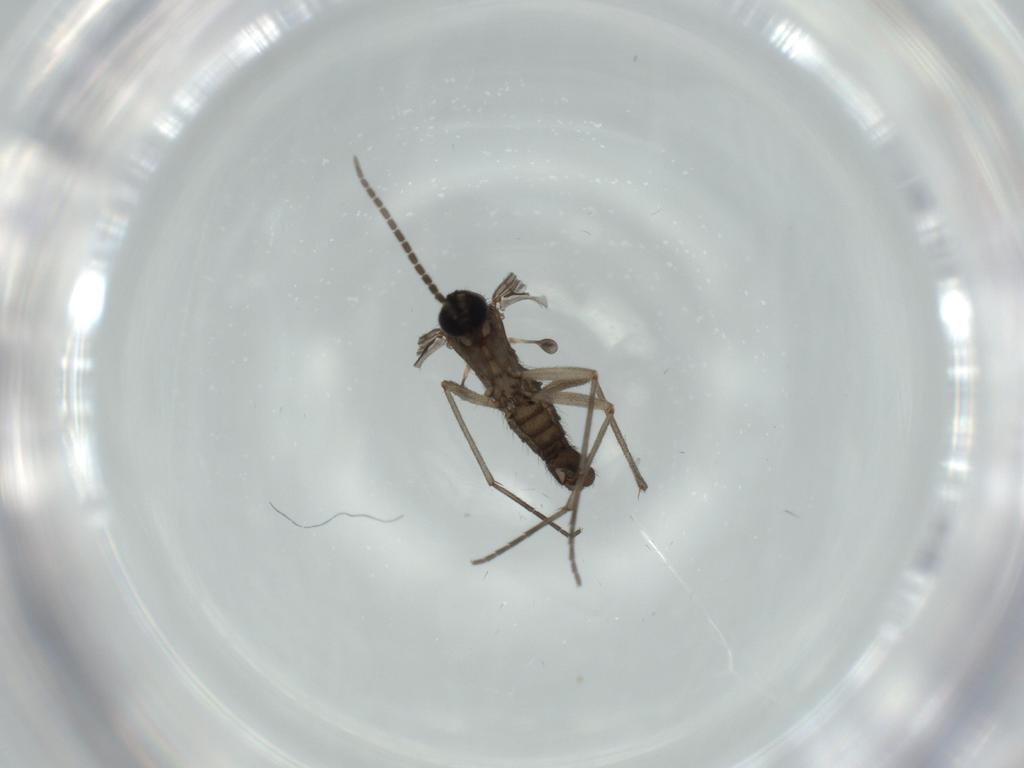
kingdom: Animalia
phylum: Arthropoda
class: Insecta
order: Diptera
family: Sciaridae
